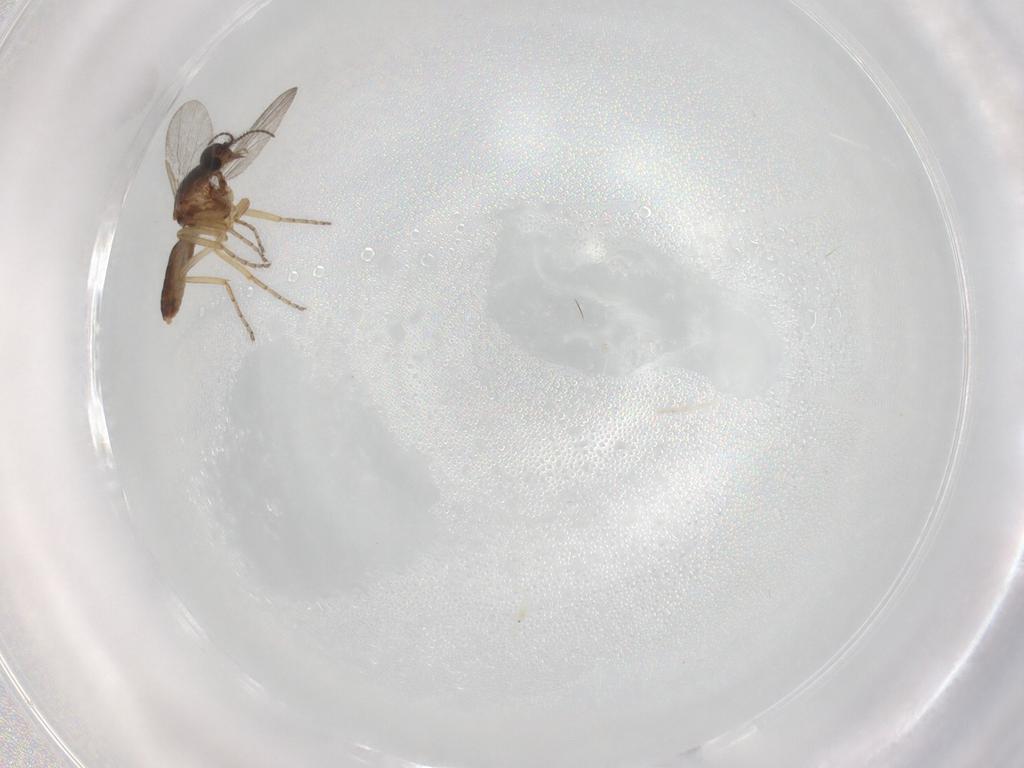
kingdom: Animalia
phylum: Arthropoda
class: Insecta
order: Diptera
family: Ceratopogonidae
